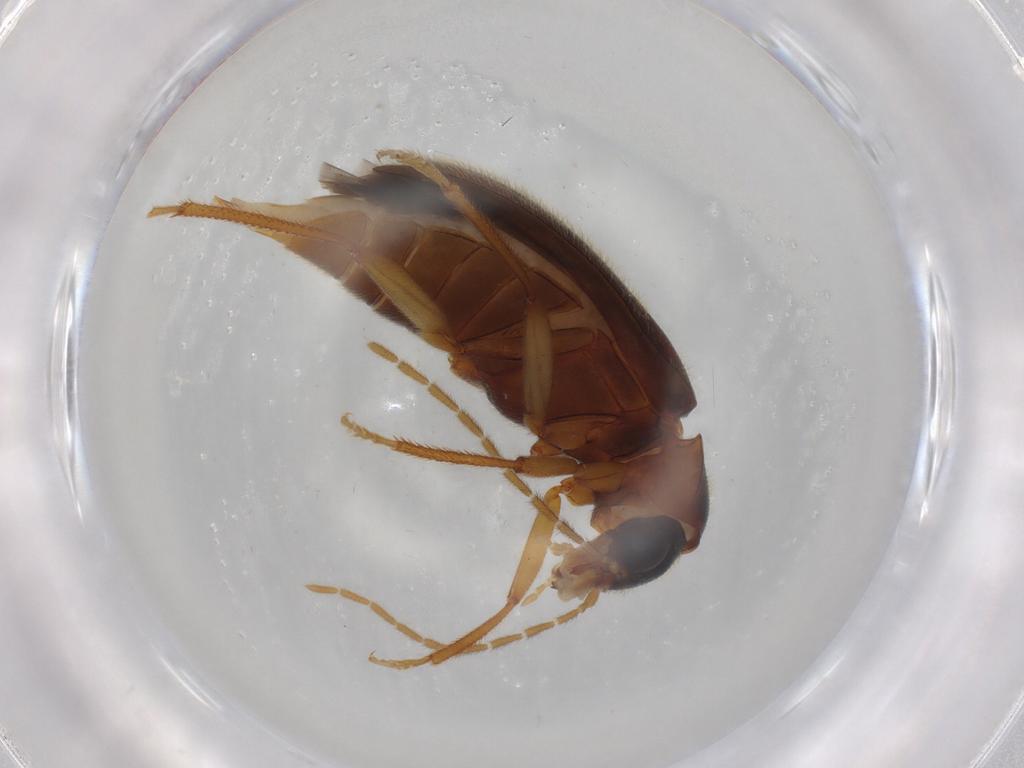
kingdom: Animalia
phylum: Arthropoda
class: Insecta
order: Coleoptera
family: Ptilodactylidae
